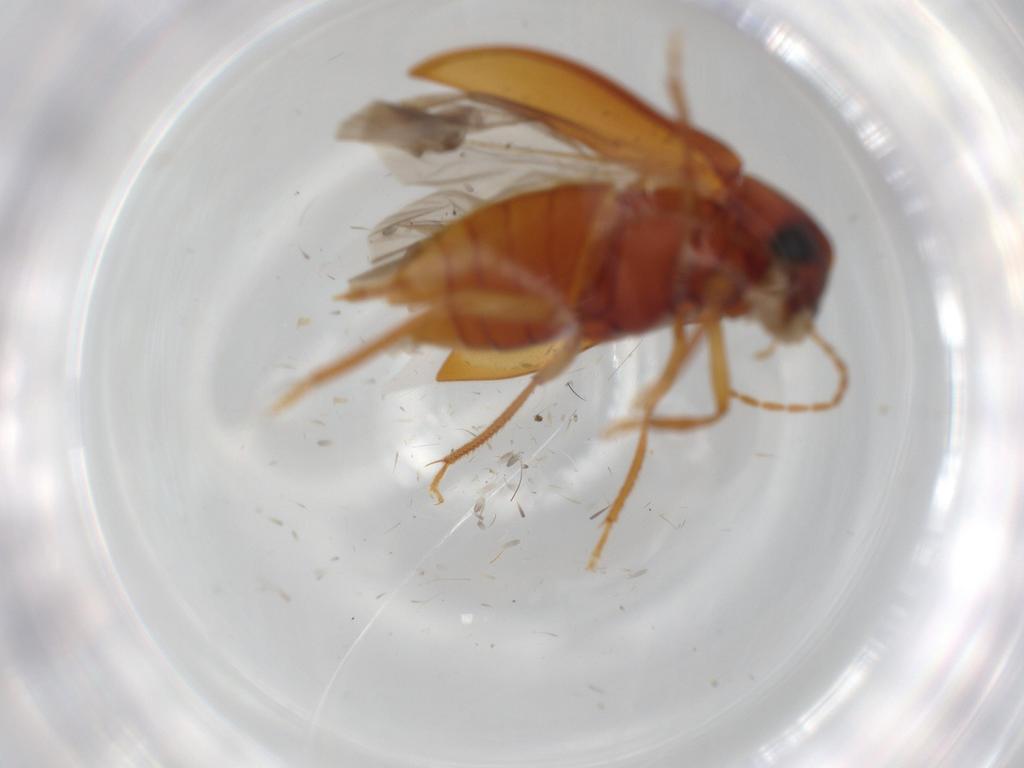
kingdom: Animalia
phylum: Arthropoda
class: Insecta
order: Coleoptera
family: Ptilodactylidae
